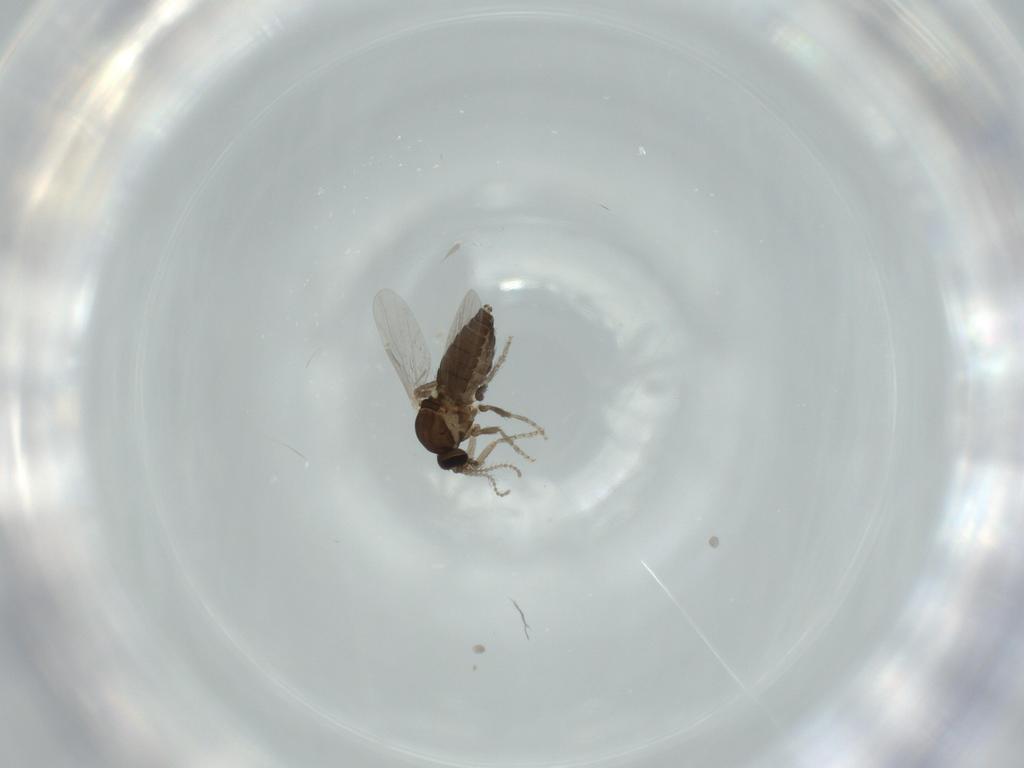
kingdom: Animalia
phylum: Arthropoda
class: Insecta
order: Diptera
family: Ceratopogonidae
